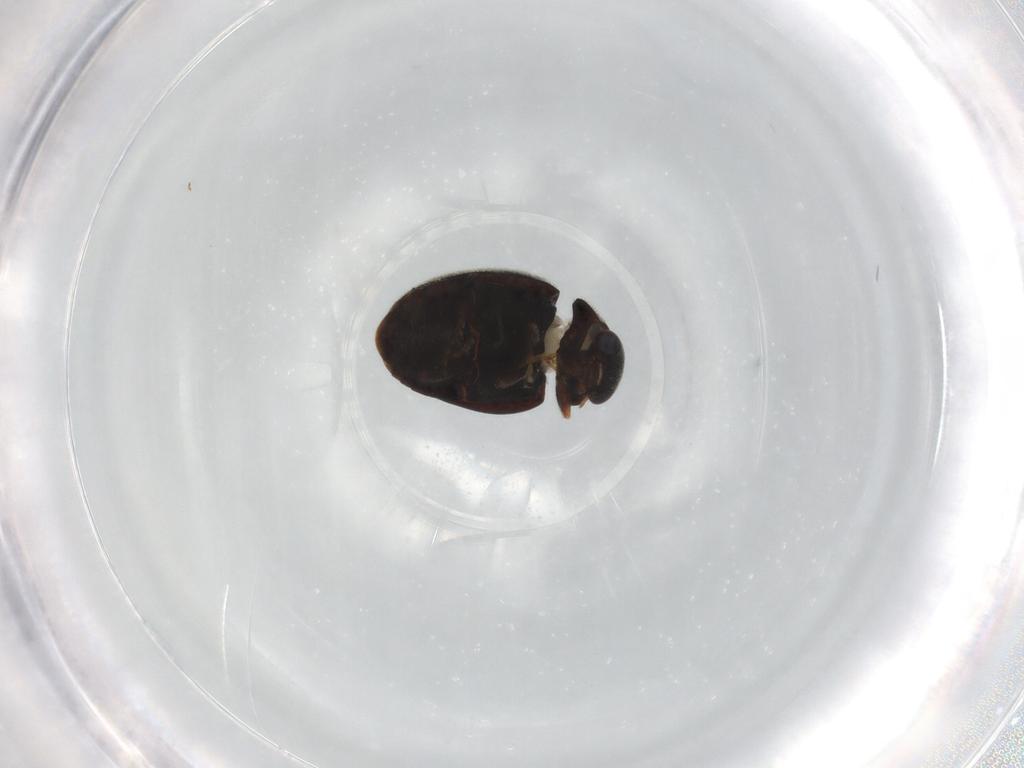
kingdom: Animalia
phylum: Arthropoda
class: Insecta
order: Coleoptera
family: Coccinellidae
